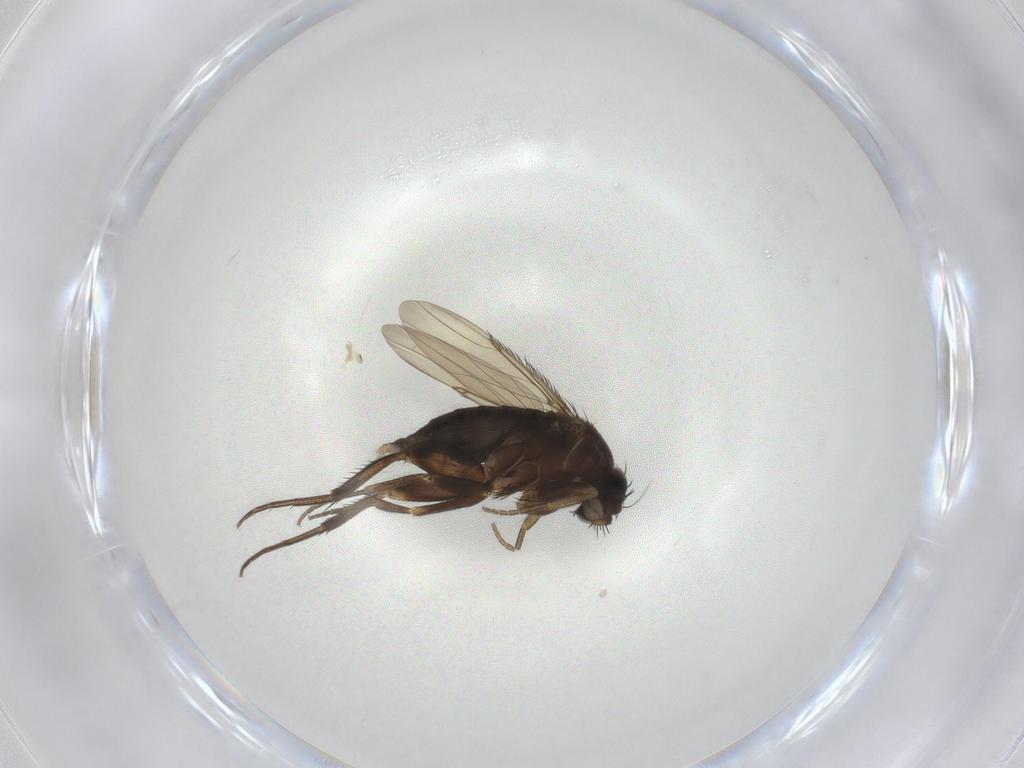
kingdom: Animalia
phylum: Arthropoda
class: Insecta
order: Diptera
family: Phoridae
